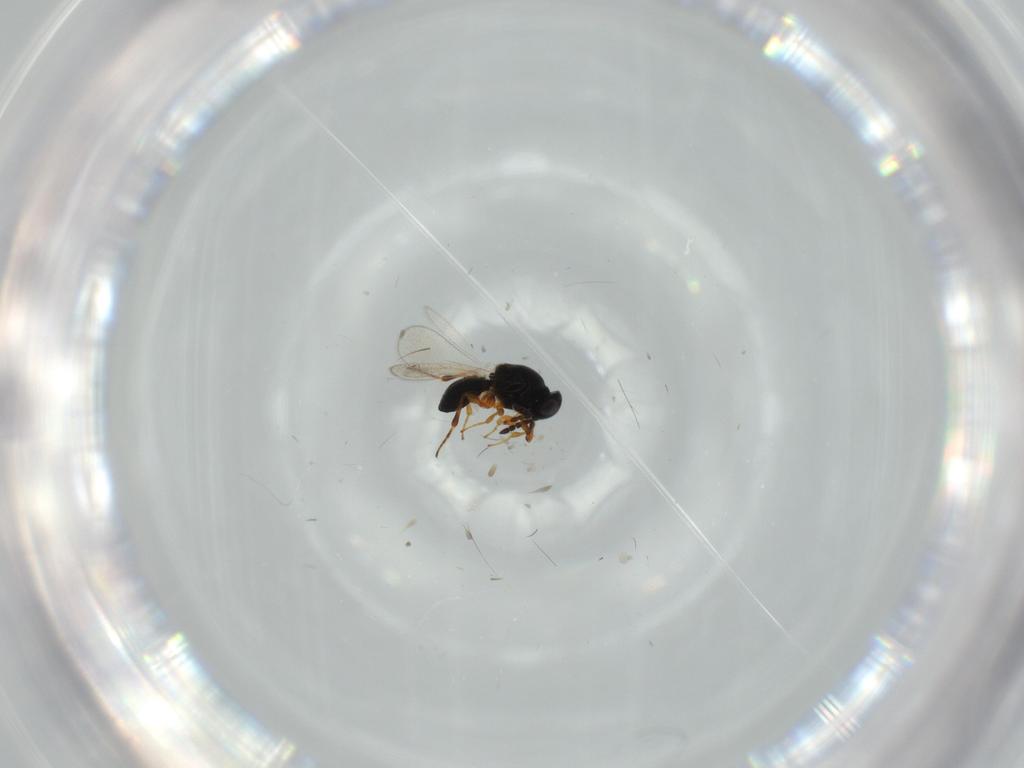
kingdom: Animalia
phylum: Arthropoda
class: Insecta
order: Hymenoptera
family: Platygastridae
